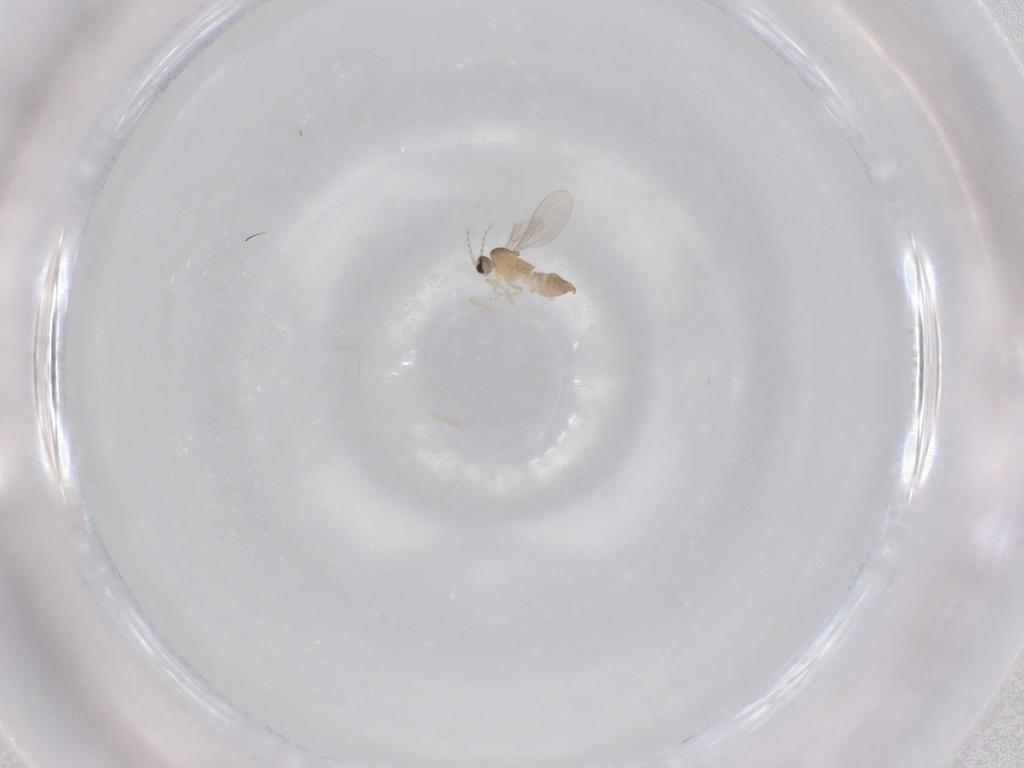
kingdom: Animalia
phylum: Arthropoda
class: Insecta
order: Diptera
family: Cecidomyiidae
